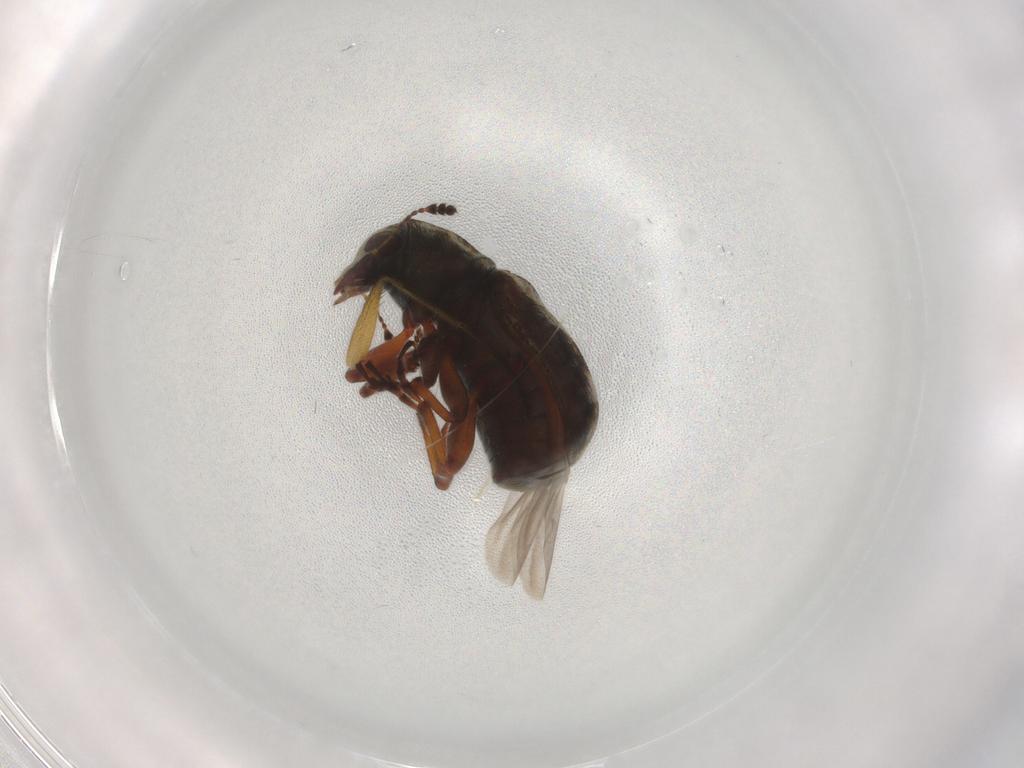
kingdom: Animalia
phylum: Arthropoda
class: Insecta
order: Coleoptera
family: Anthribidae
